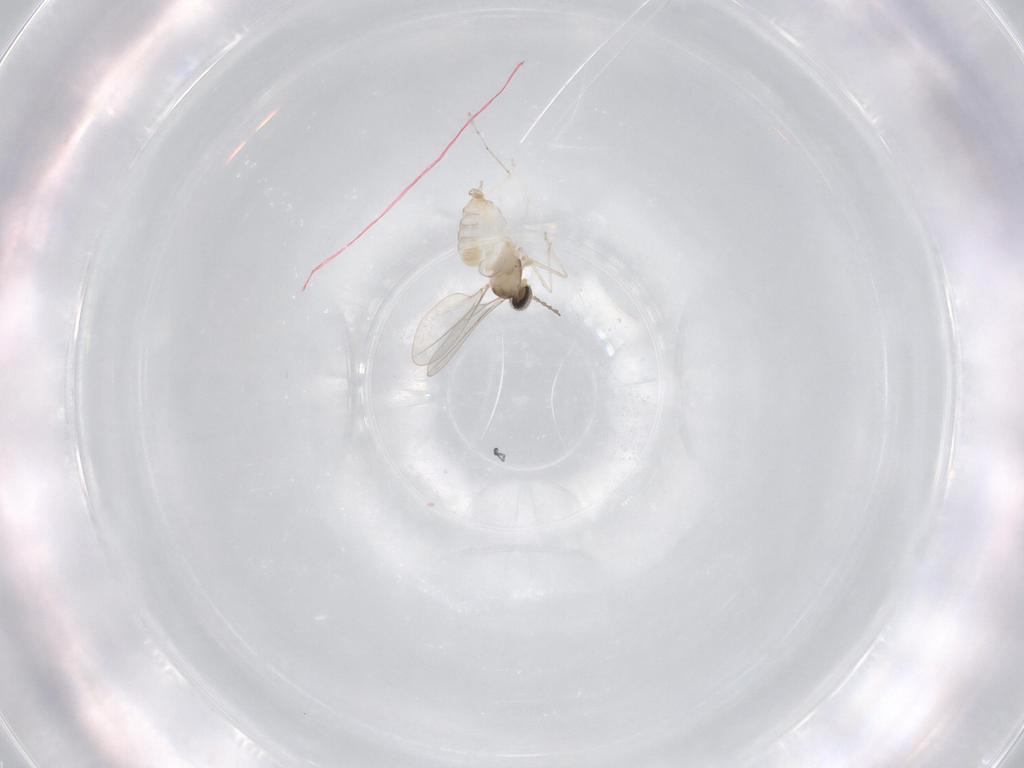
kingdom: Animalia
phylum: Arthropoda
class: Insecta
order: Diptera
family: Cecidomyiidae
